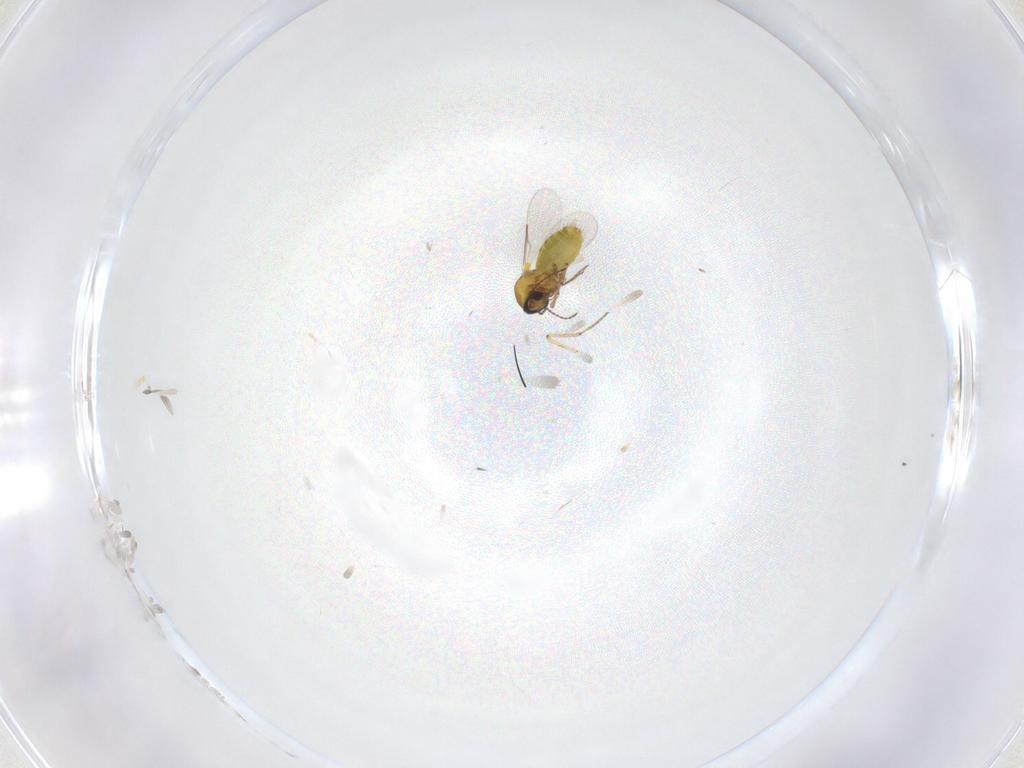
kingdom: Animalia
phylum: Arthropoda
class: Insecta
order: Diptera
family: Ceratopogonidae
